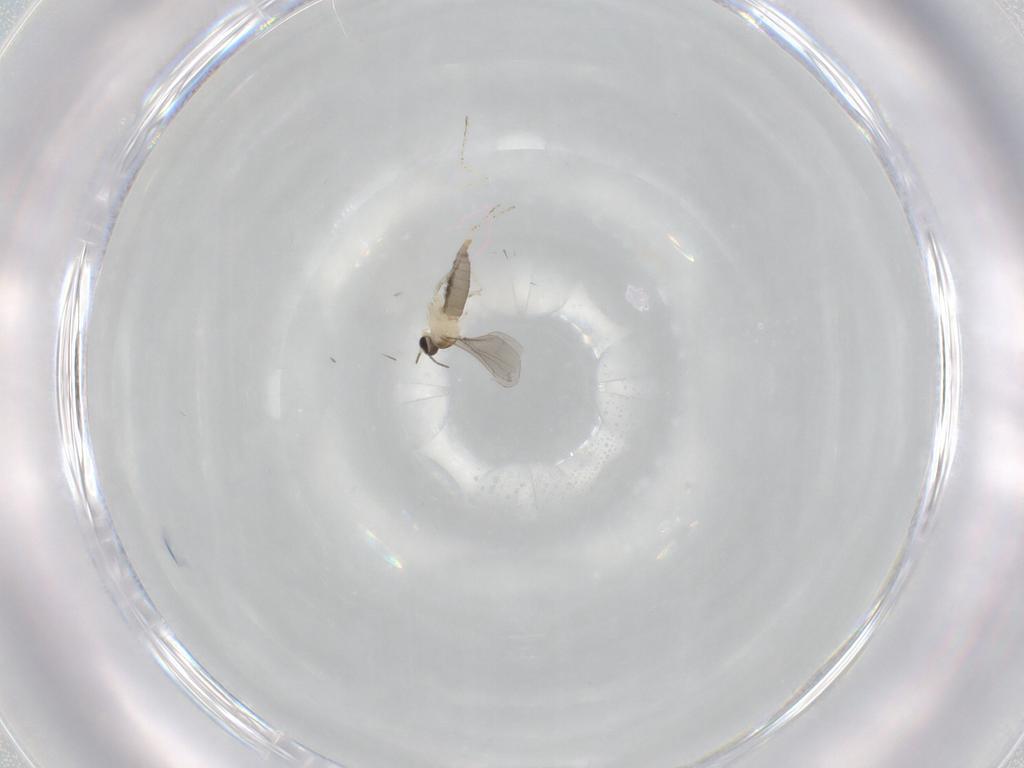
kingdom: Animalia
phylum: Arthropoda
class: Insecta
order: Diptera
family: Cecidomyiidae
